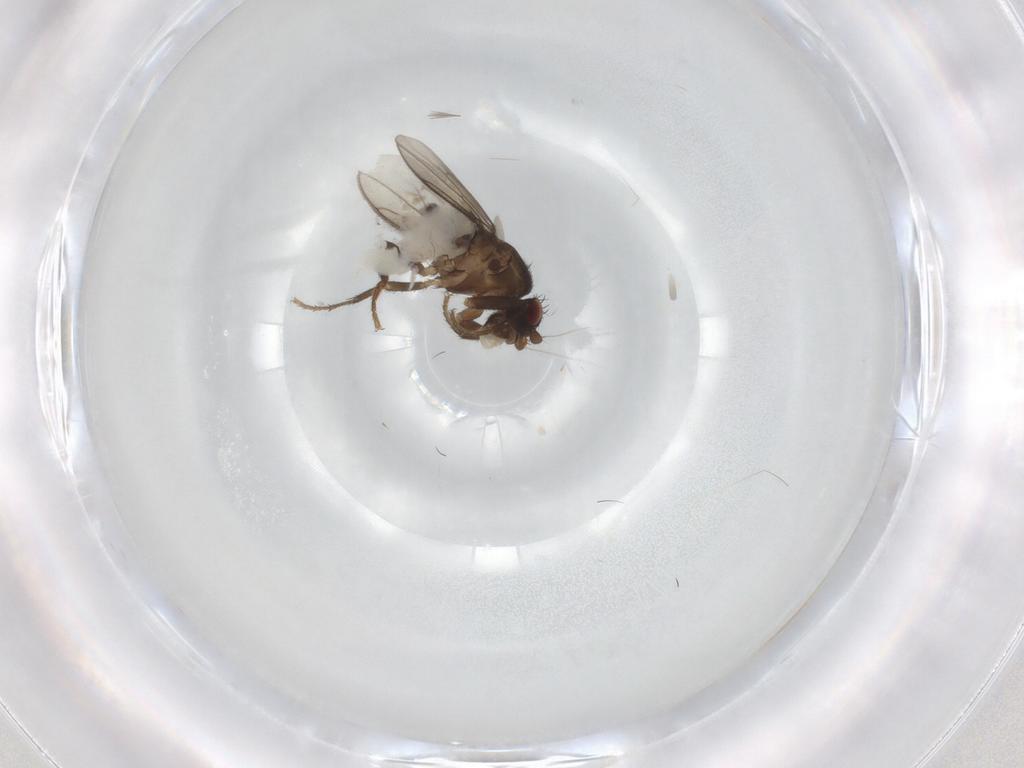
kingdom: Animalia
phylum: Arthropoda
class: Insecta
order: Diptera
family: Sphaeroceridae
